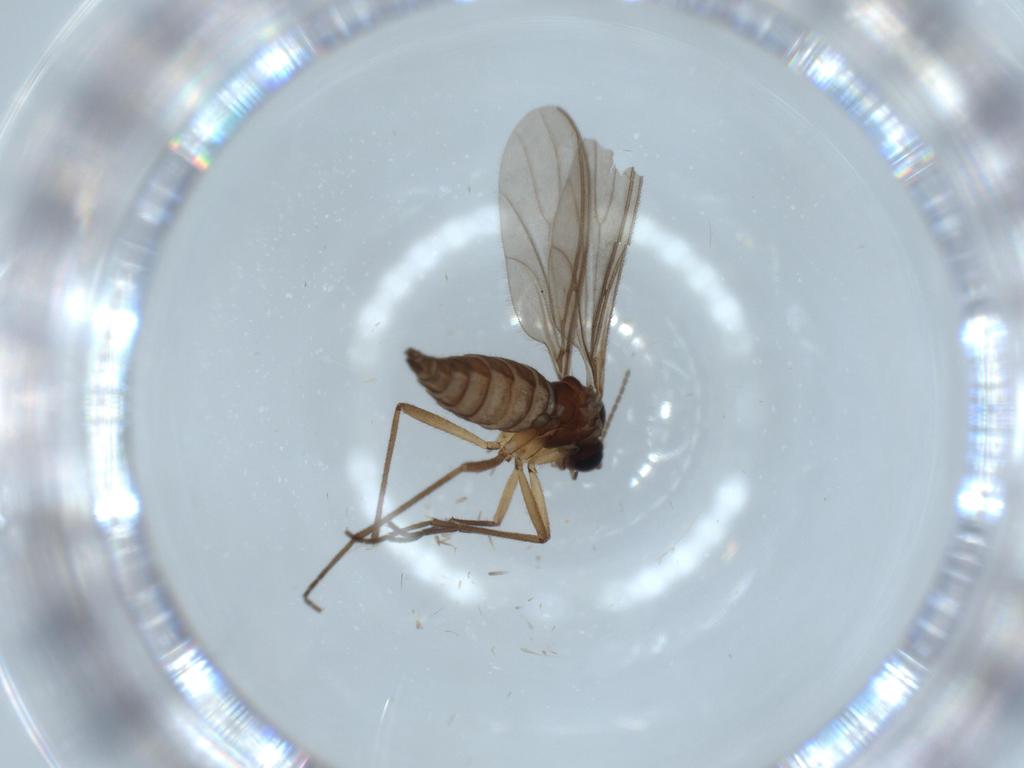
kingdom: Animalia
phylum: Arthropoda
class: Insecta
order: Diptera
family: Sciaridae
